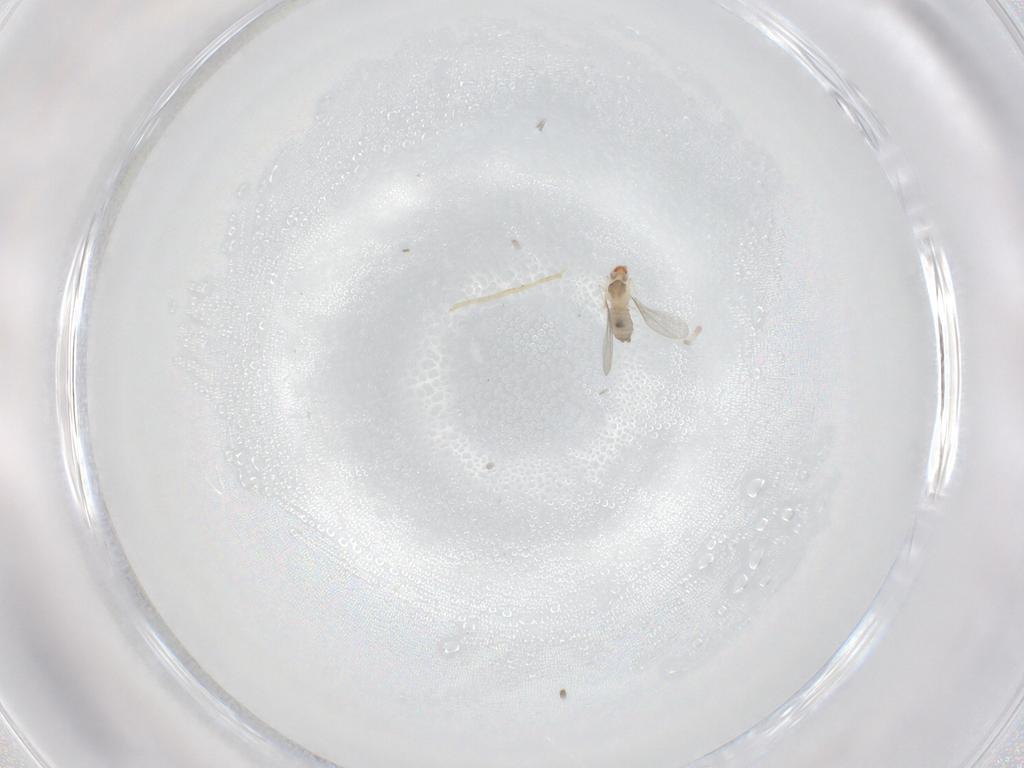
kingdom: Animalia
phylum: Arthropoda
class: Insecta
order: Diptera
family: Cecidomyiidae
